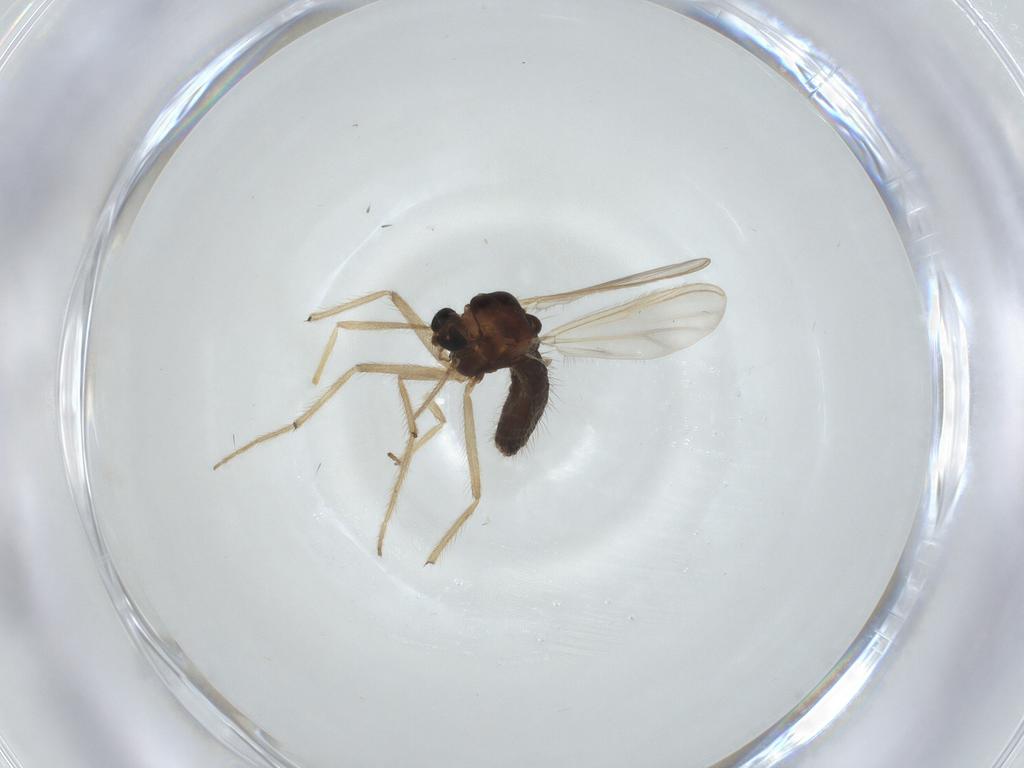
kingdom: Animalia
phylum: Arthropoda
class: Insecta
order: Diptera
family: Chironomidae
